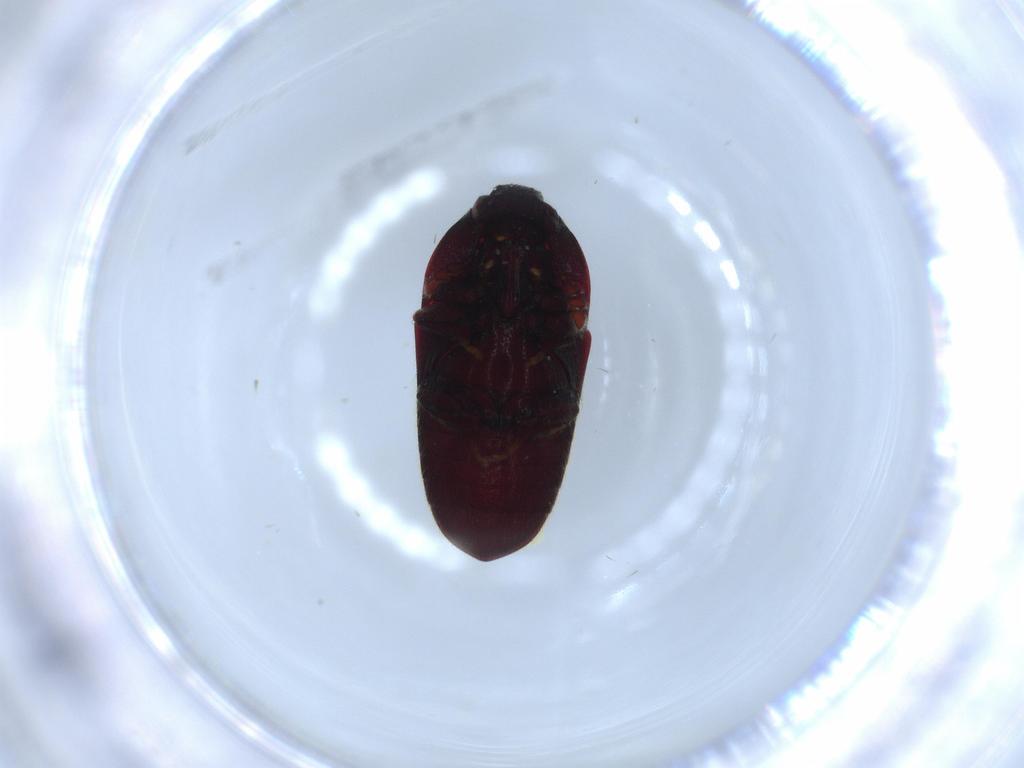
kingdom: Animalia
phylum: Arthropoda
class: Insecta
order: Coleoptera
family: Throscidae
